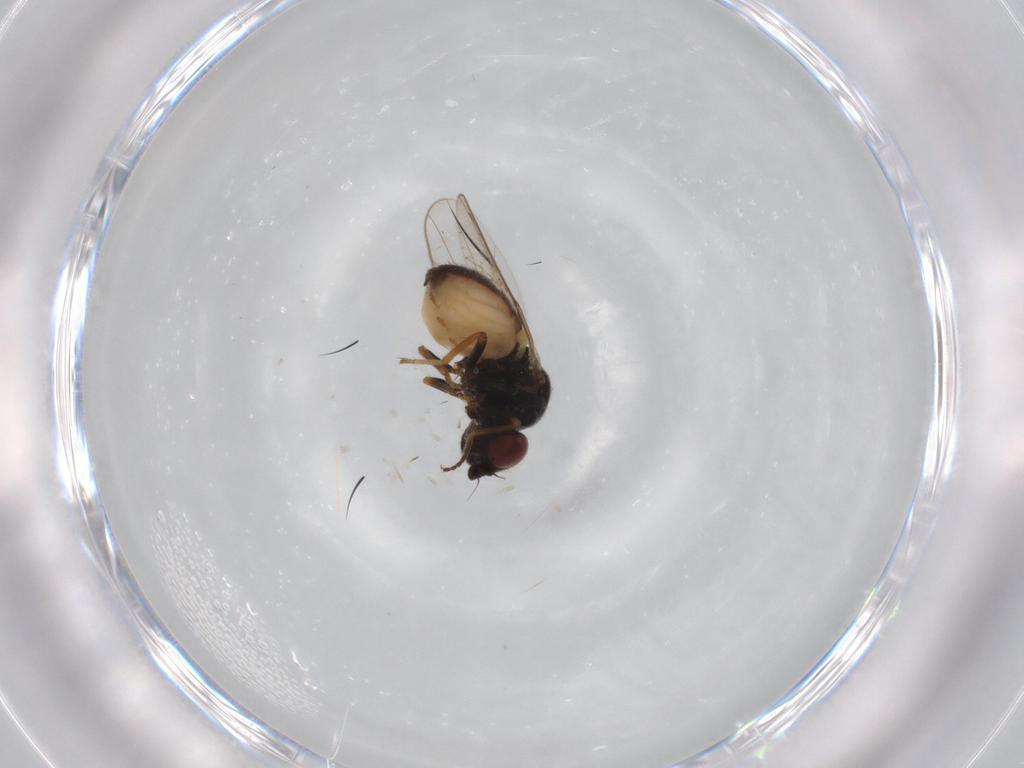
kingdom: Animalia
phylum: Arthropoda
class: Insecta
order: Diptera
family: Chloropidae
